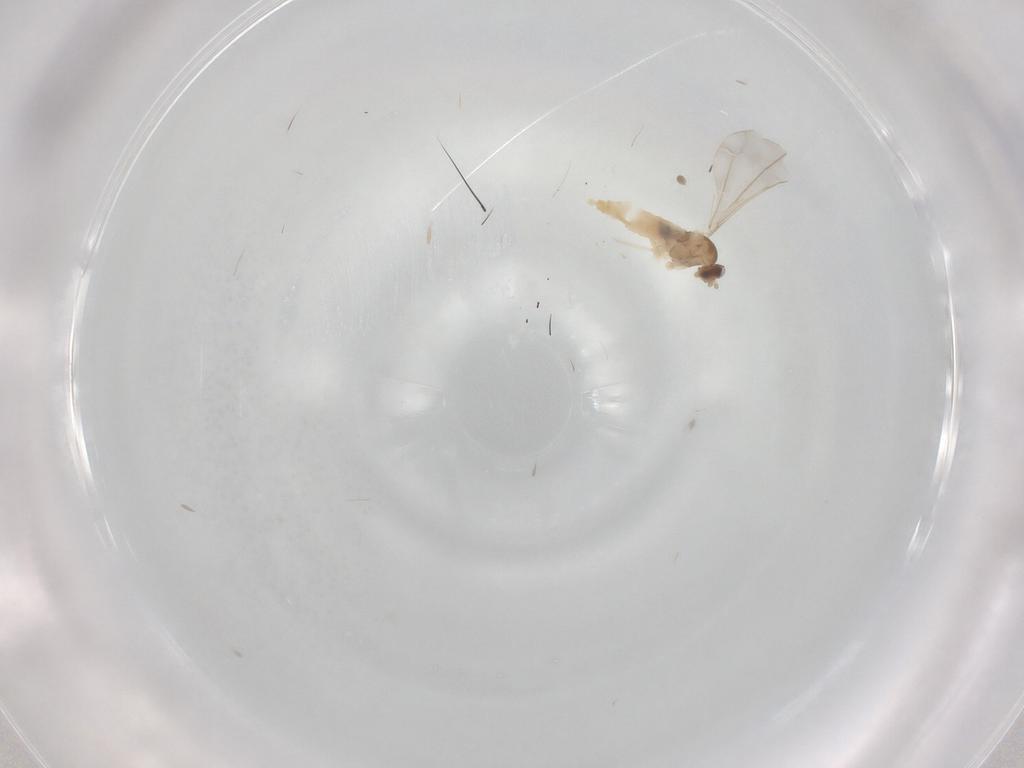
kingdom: Animalia
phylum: Arthropoda
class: Insecta
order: Diptera
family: Cecidomyiidae
